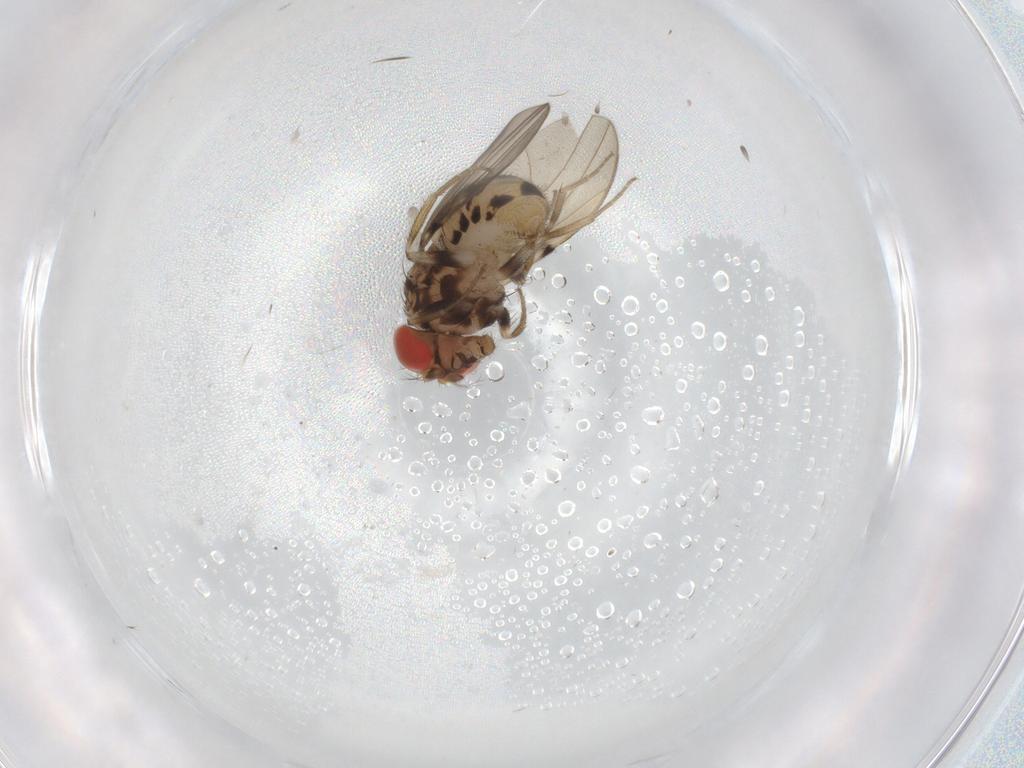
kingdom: Animalia
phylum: Arthropoda
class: Insecta
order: Diptera
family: Drosophilidae
